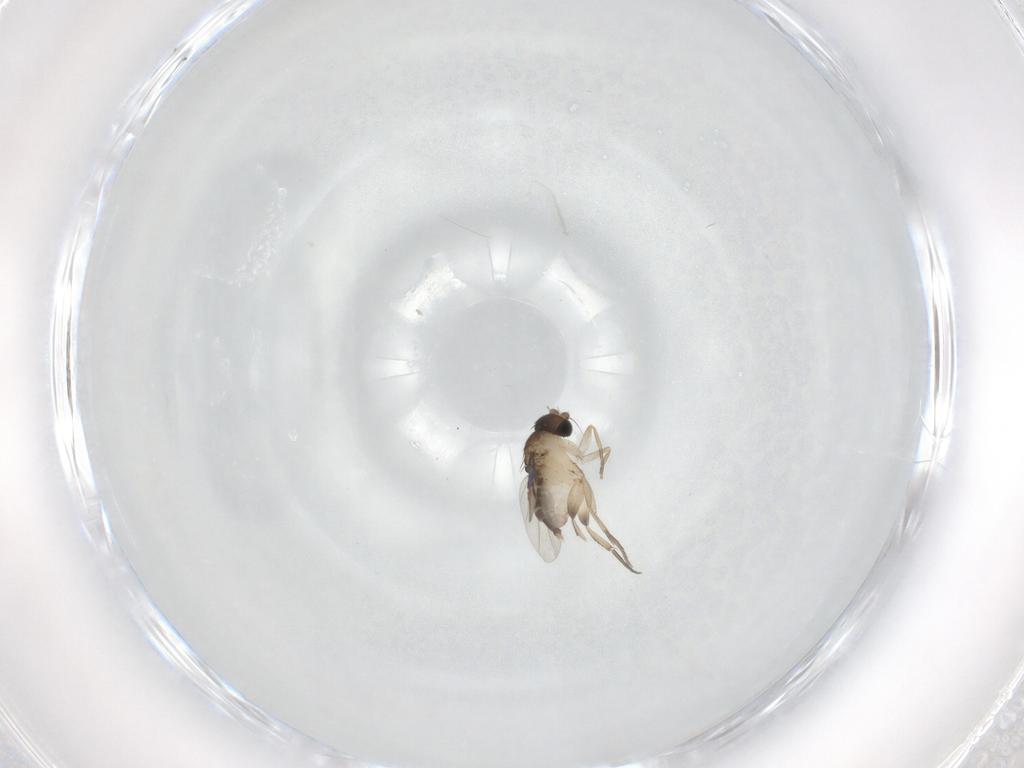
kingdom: Animalia
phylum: Arthropoda
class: Insecta
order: Diptera
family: Phoridae
